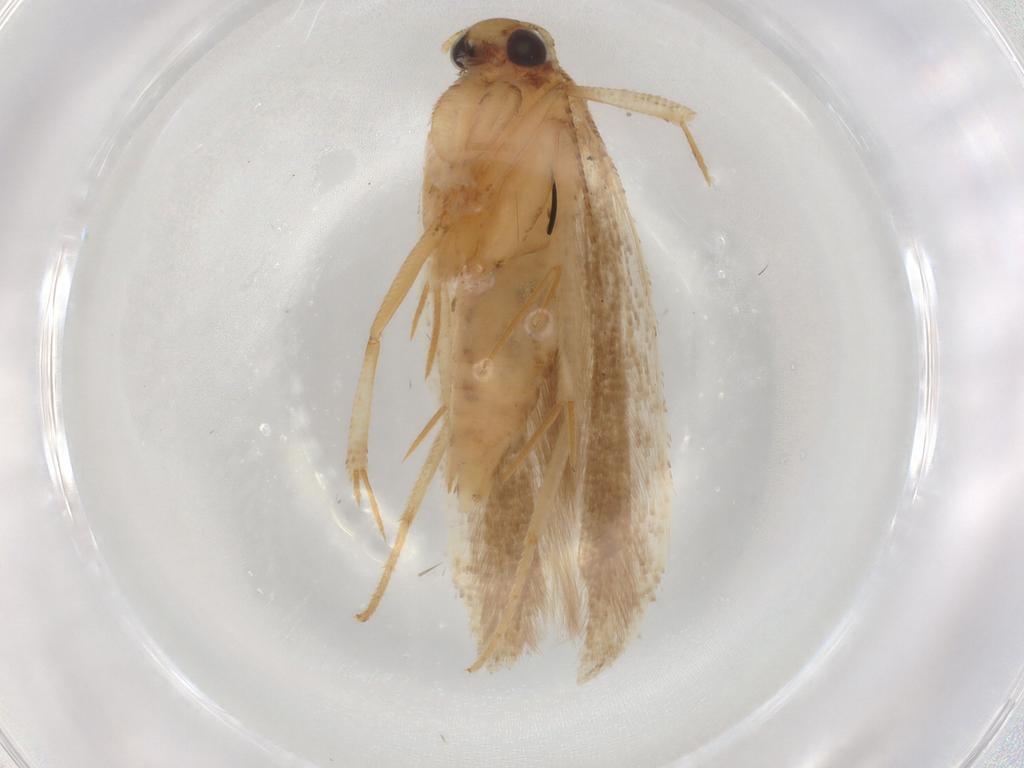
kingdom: Animalia
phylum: Arthropoda
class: Insecta
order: Lepidoptera
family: Gelechiidae
